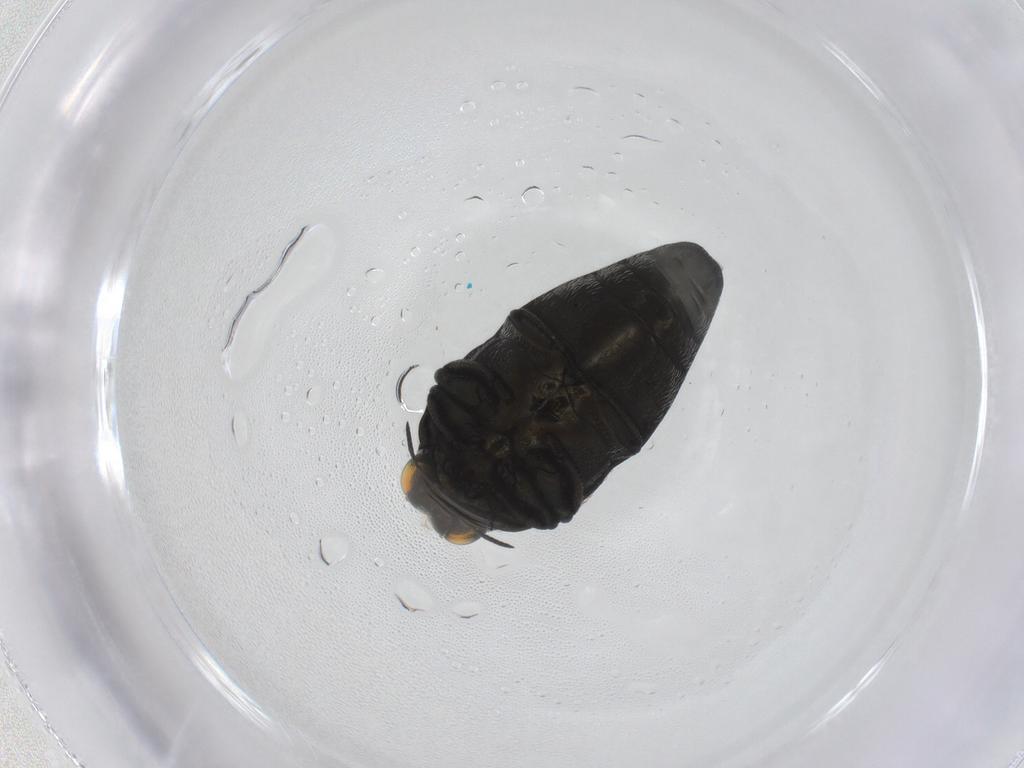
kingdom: Animalia
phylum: Arthropoda
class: Insecta
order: Coleoptera
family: Buprestidae
